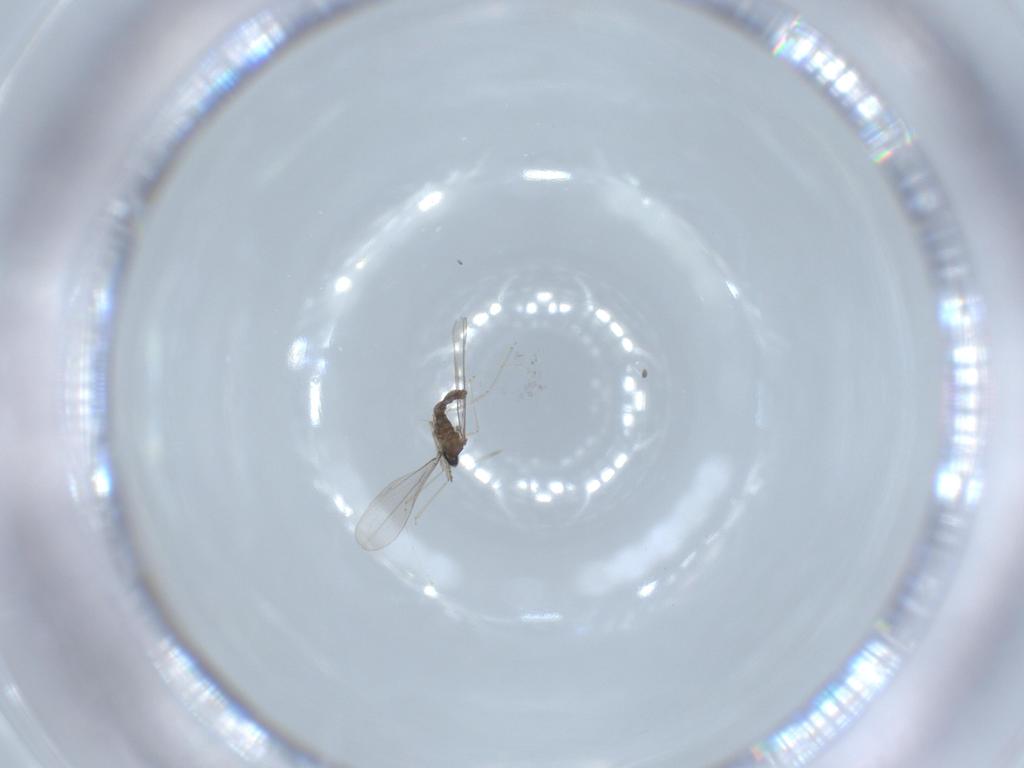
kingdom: Animalia
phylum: Arthropoda
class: Insecta
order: Diptera
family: Cecidomyiidae
